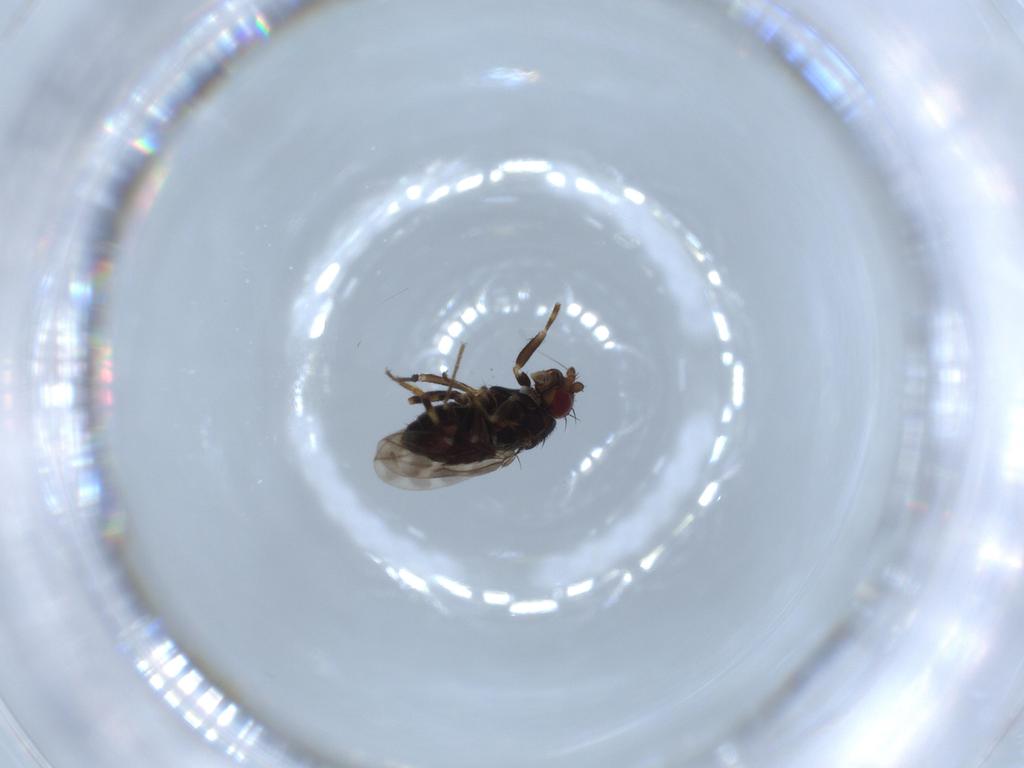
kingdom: Animalia
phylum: Arthropoda
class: Insecta
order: Diptera
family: Sphaeroceridae
